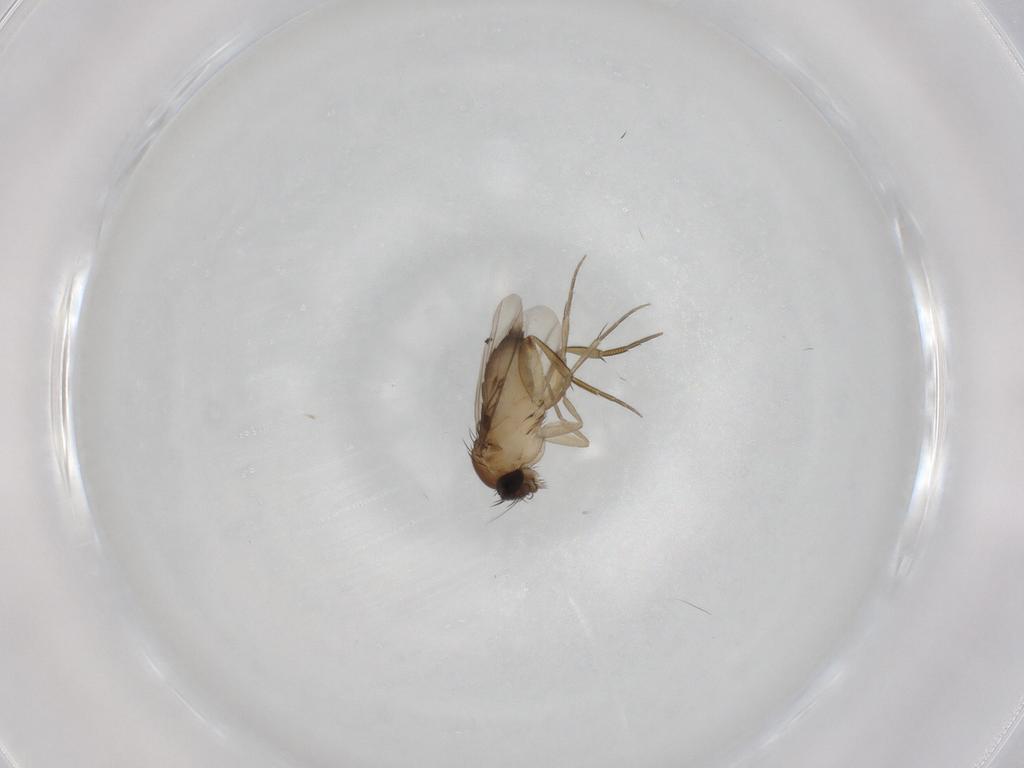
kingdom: Animalia
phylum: Arthropoda
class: Insecta
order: Diptera
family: Phoridae
